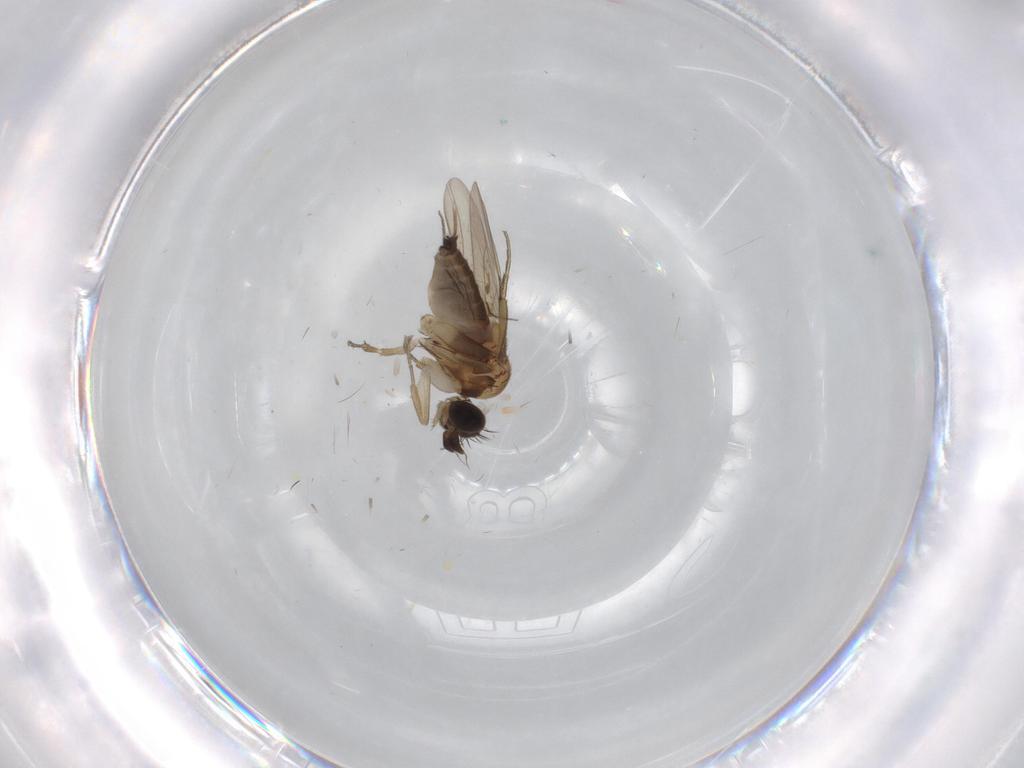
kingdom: Animalia
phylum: Arthropoda
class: Insecta
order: Diptera
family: Phoridae
